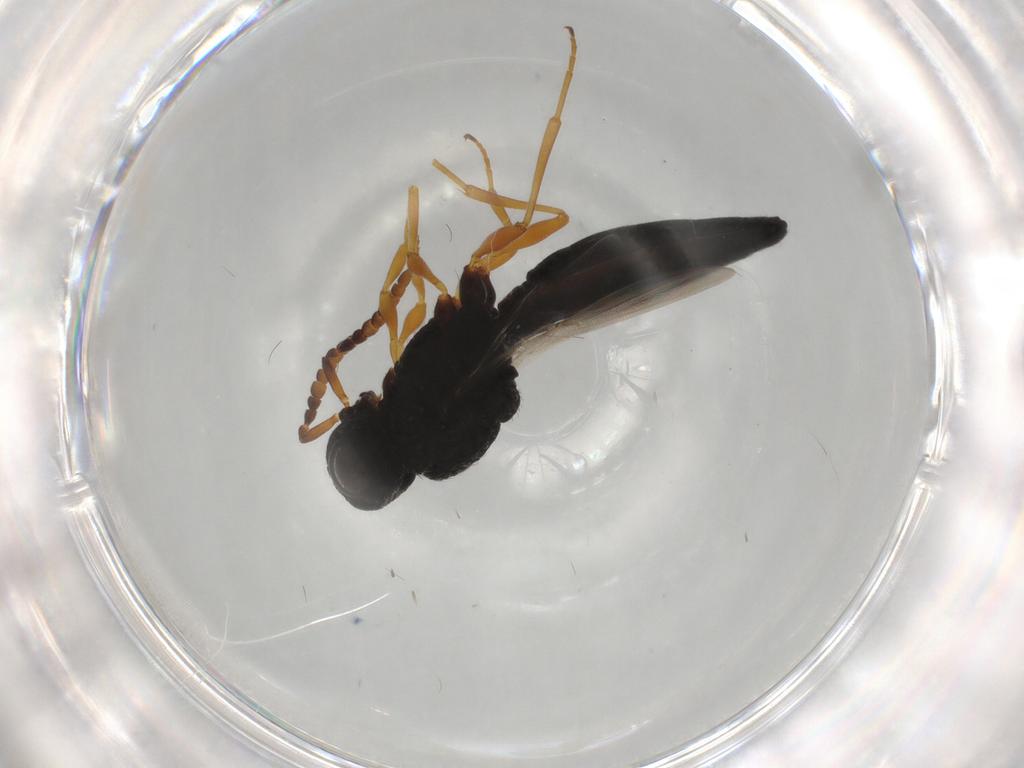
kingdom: Animalia
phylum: Arthropoda
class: Insecta
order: Hymenoptera
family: Scelionidae
